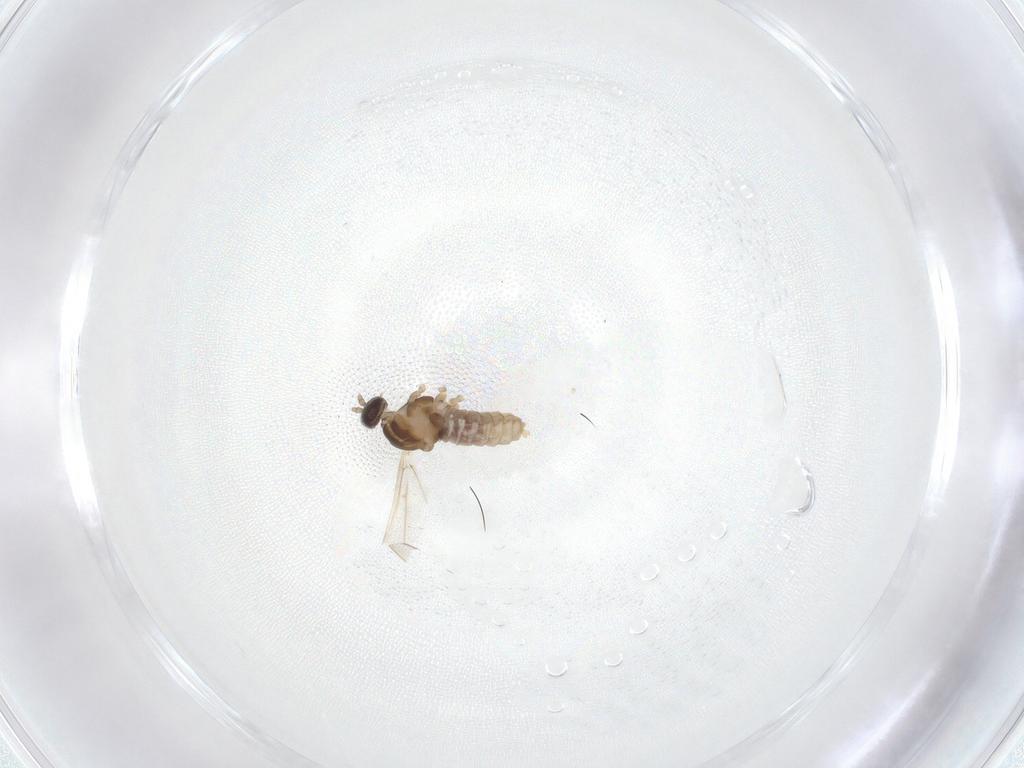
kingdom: Animalia
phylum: Arthropoda
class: Insecta
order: Diptera
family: Cecidomyiidae
